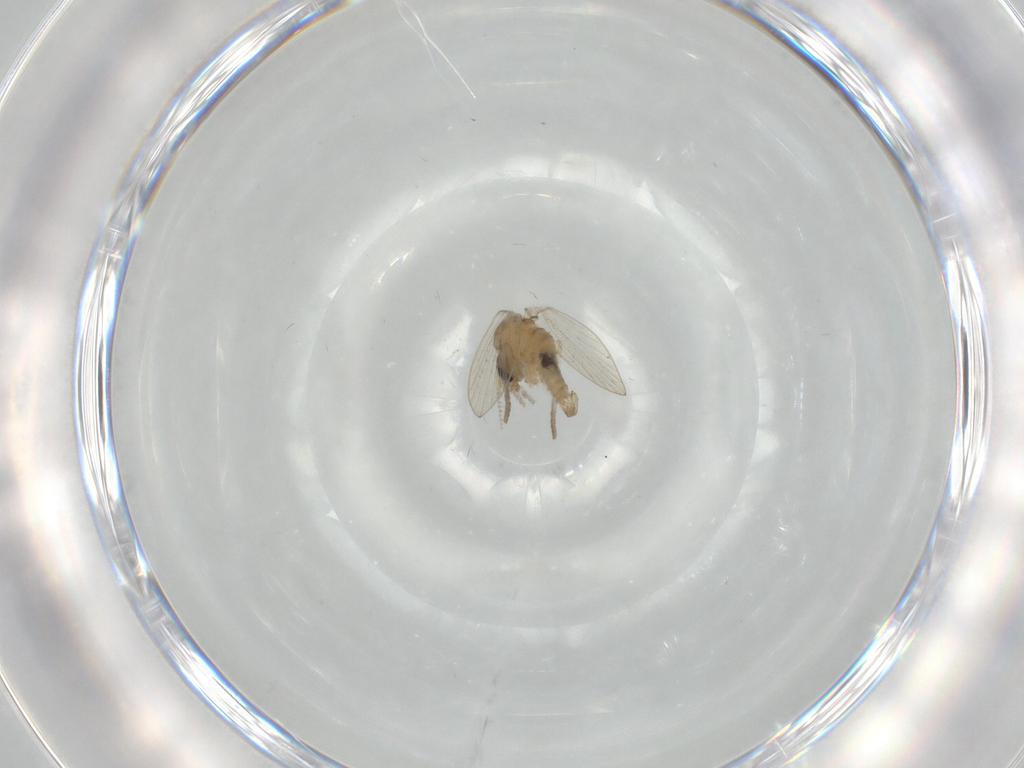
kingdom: Animalia
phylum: Arthropoda
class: Insecta
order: Diptera
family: Psychodidae
